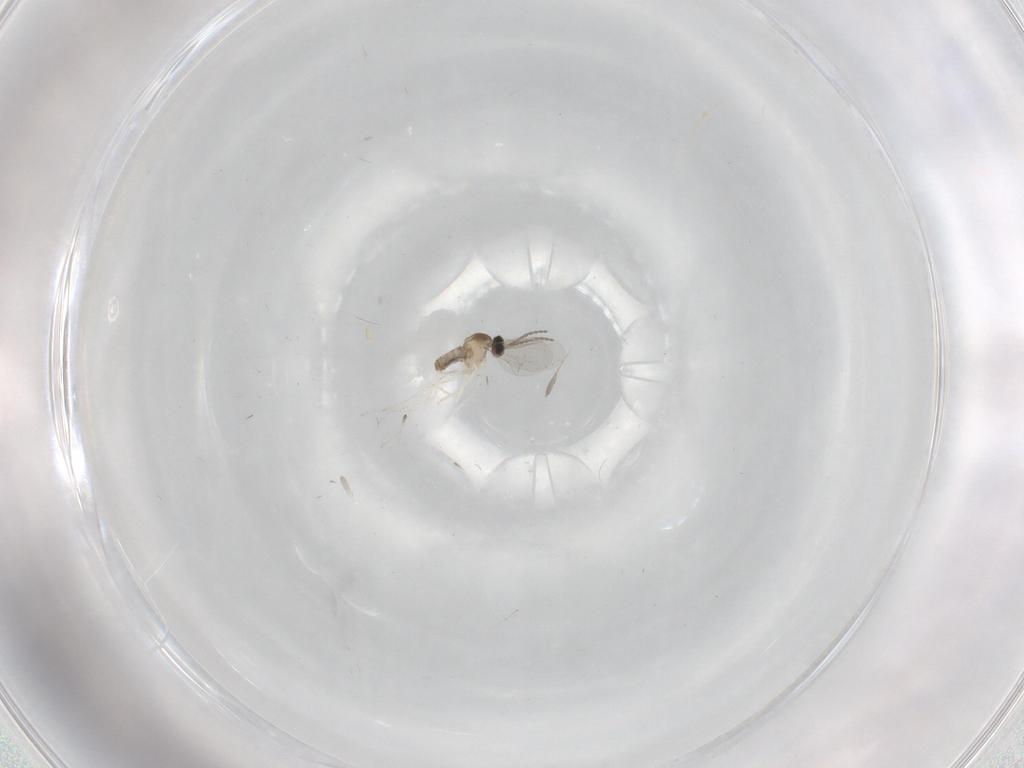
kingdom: Animalia
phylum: Arthropoda
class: Insecta
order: Diptera
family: Cecidomyiidae
